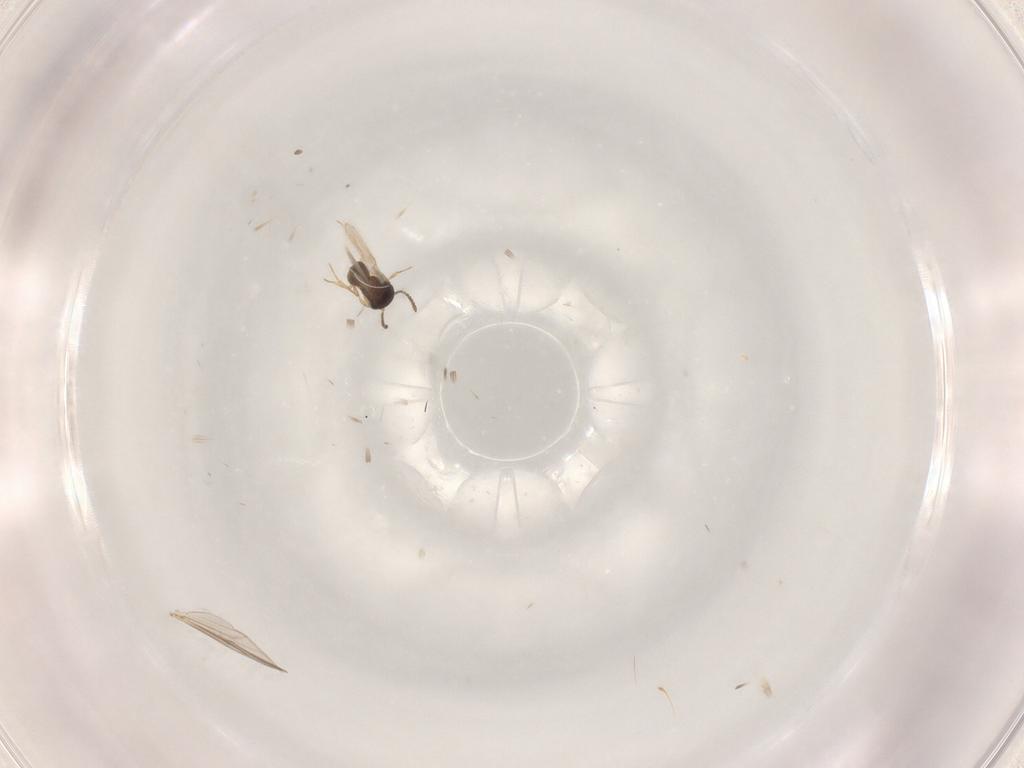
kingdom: Animalia
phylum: Arthropoda
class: Insecta
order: Hymenoptera
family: Scelionidae
